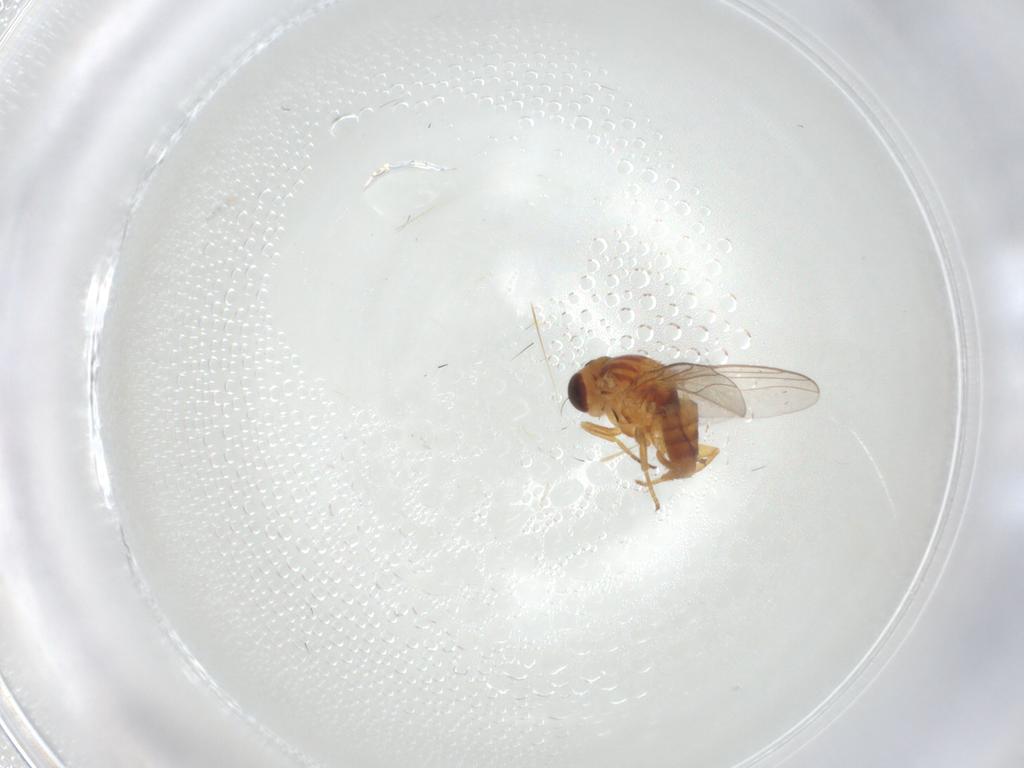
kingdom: Animalia
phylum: Arthropoda
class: Insecta
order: Diptera
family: Chloropidae
